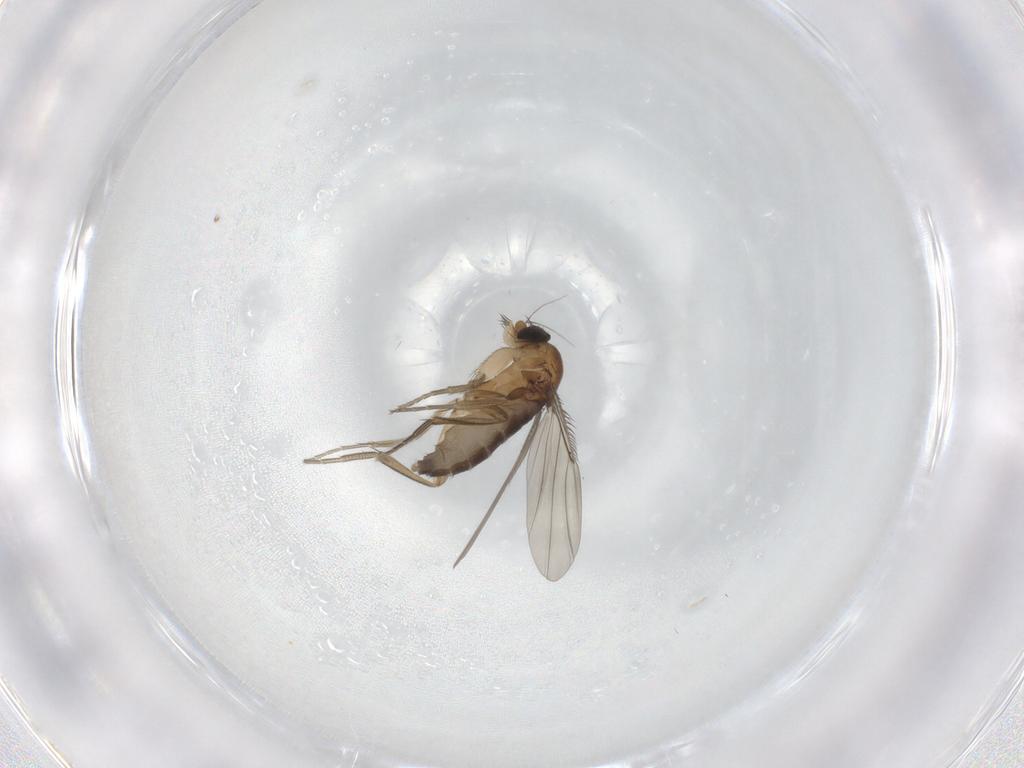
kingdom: Animalia
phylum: Arthropoda
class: Insecta
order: Diptera
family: Phoridae
